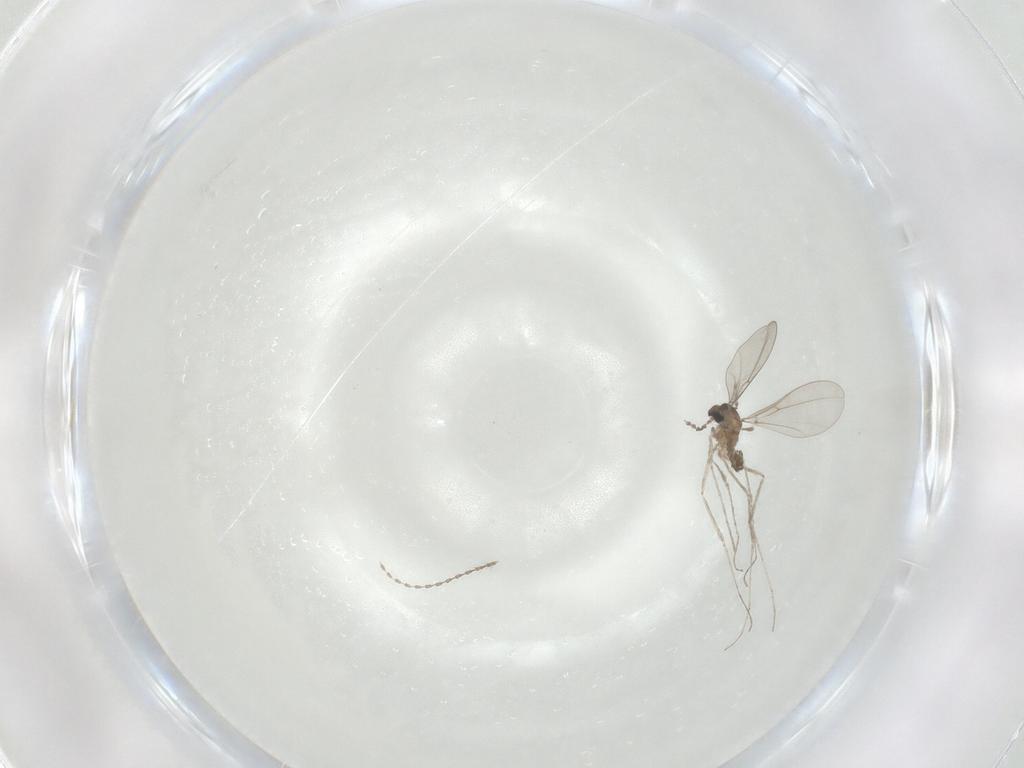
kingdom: Animalia
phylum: Arthropoda
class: Insecta
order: Diptera
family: Cecidomyiidae
